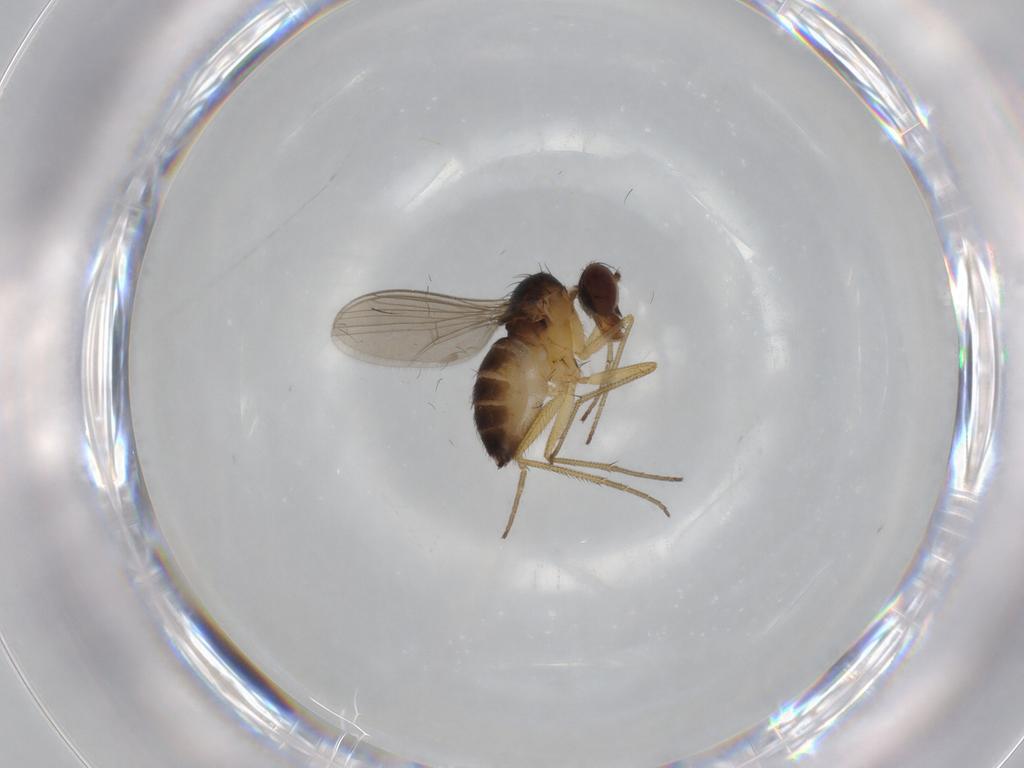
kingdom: Animalia
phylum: Arthropoda
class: Insecta
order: Diptera
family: Dolichopodidae
